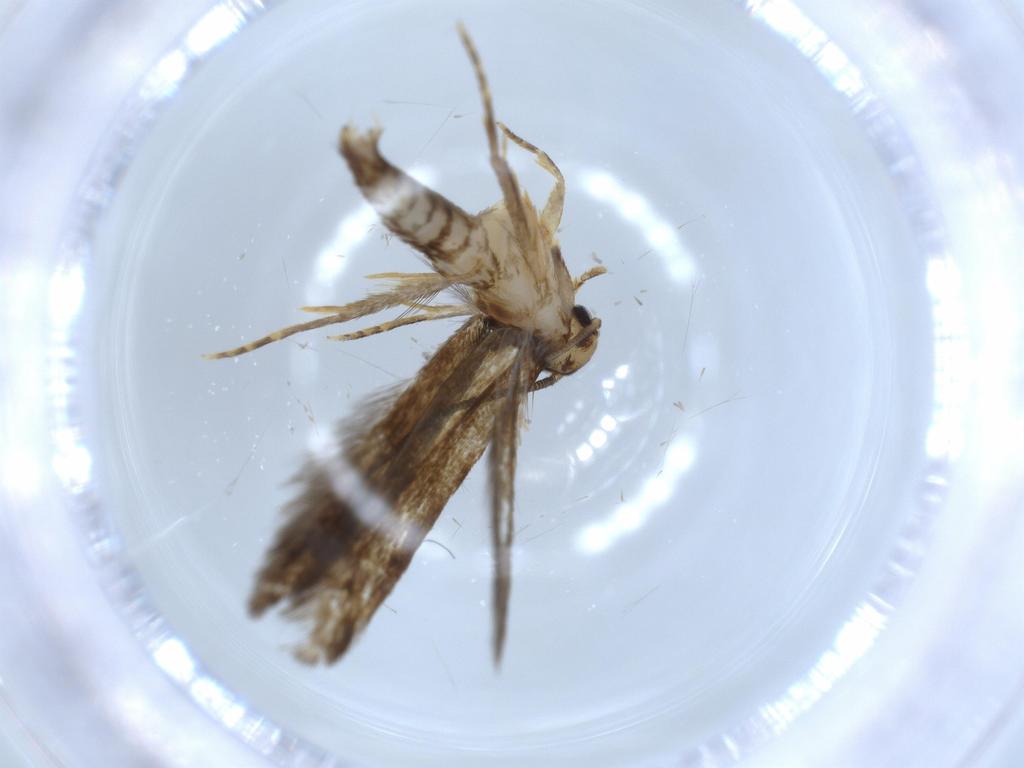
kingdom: Animalia
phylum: Arthropoda
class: Insecta
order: Lepidoptera
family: Tineidae
